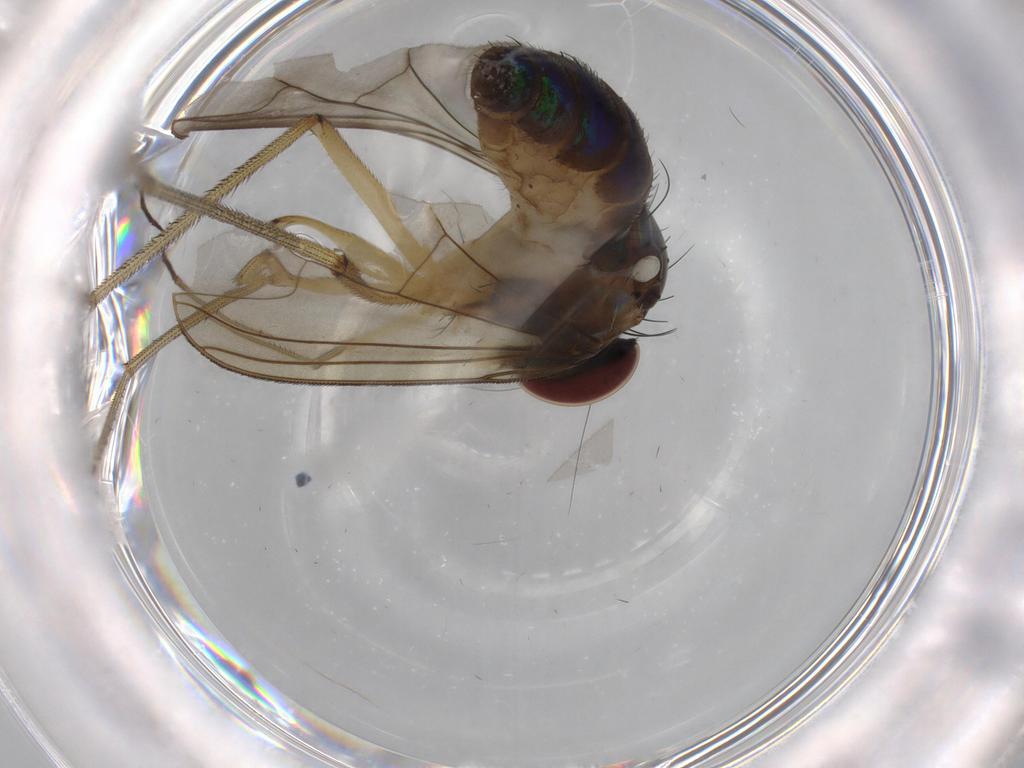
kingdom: Animalia
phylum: Arthropoda
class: Insecta
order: Diptera
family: Dolichopodidae
